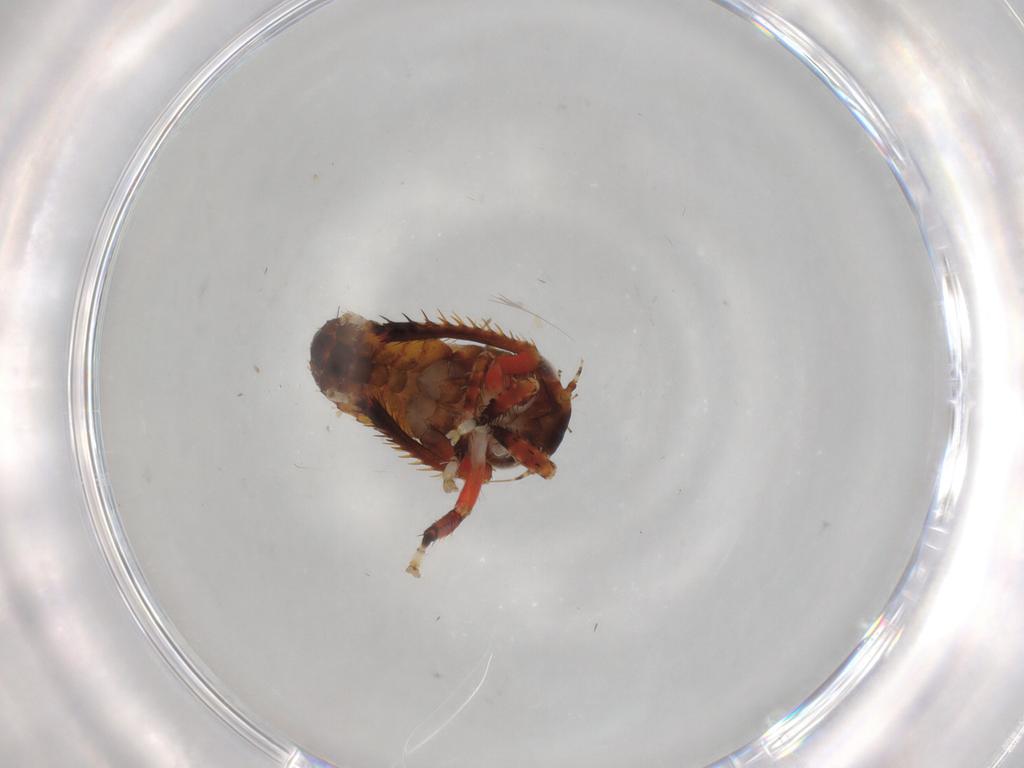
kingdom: Animalia
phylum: Arthropoda
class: Insecta
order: Hemiptera
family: Cicadellidae
